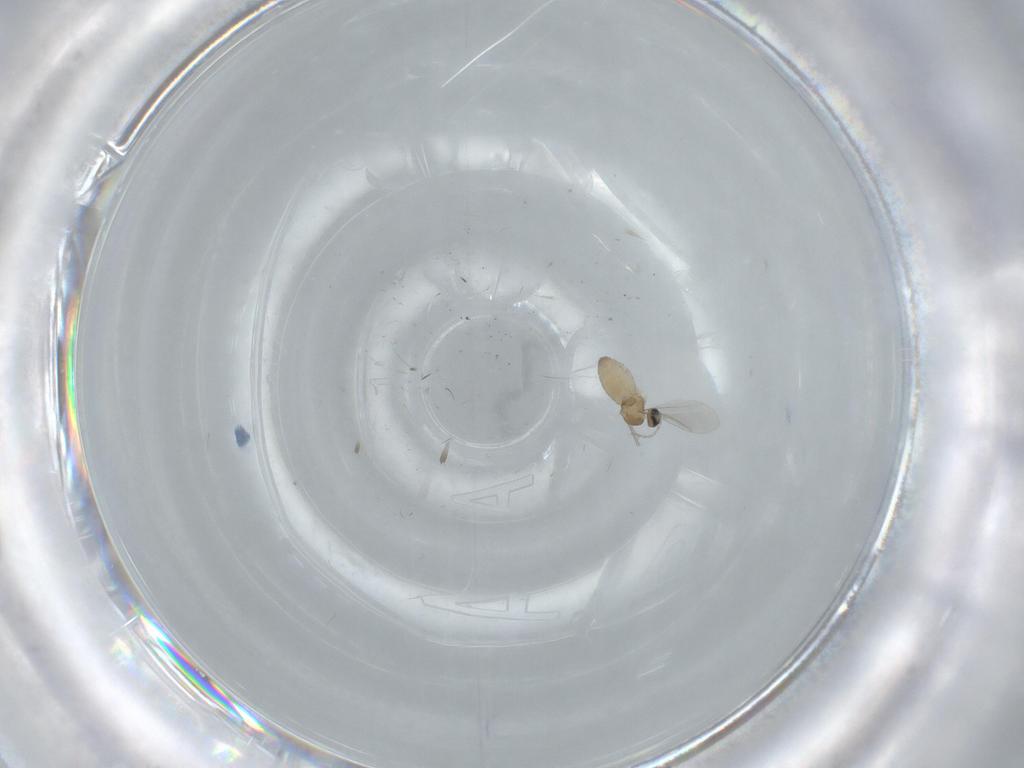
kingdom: Animalia
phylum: Arthropoda
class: Insecta
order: Diptera
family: Cecidomyiidae
